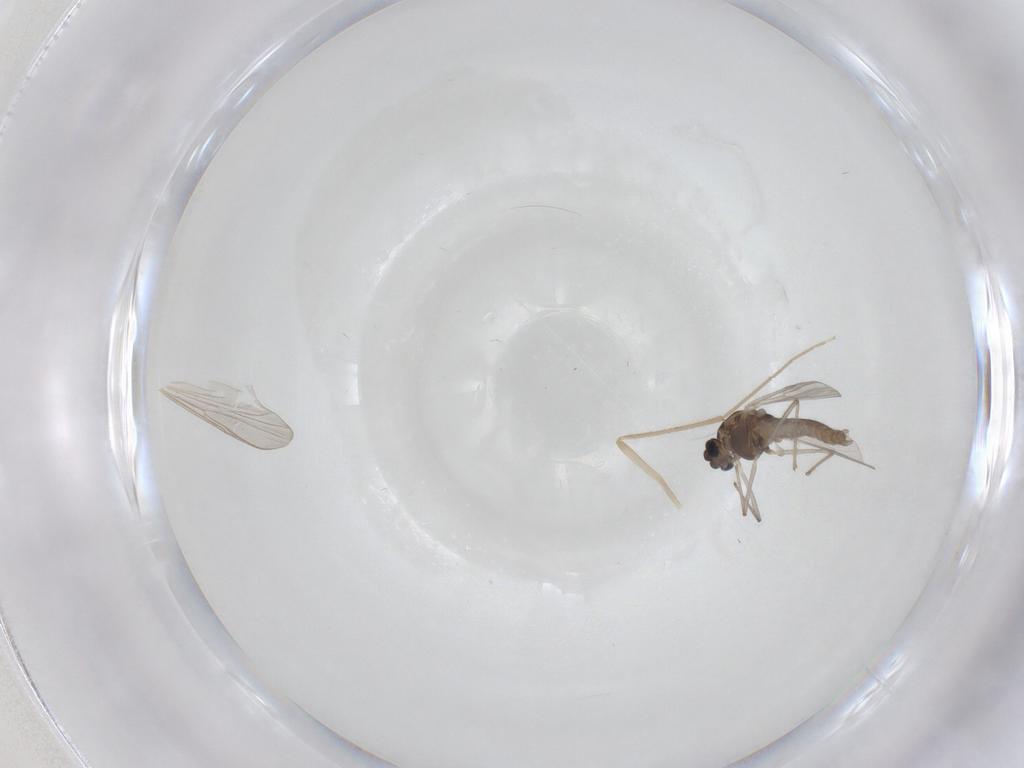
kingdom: Animalia
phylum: Arthropoda
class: Insecta
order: Diptera
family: Chironomidae
